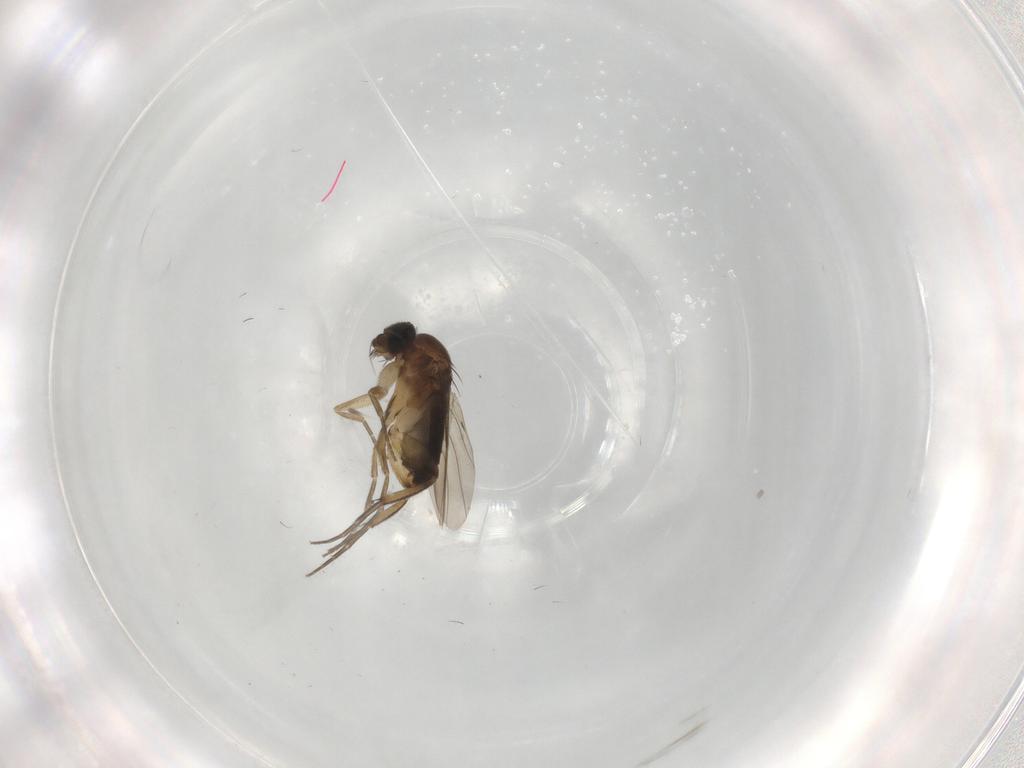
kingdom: Animalia
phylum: Arthropoda
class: Insecta
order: Diptera
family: Phoridae
